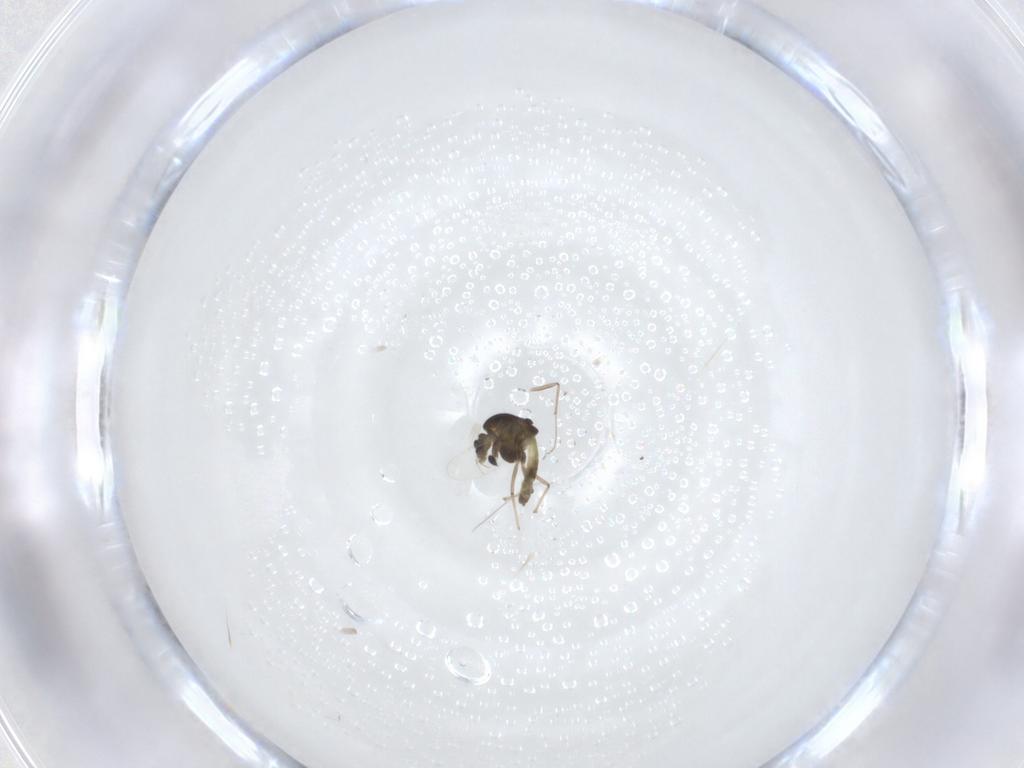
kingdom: Animalia
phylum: Arthropoda
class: Insecta
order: Diptera
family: Chironomidae
